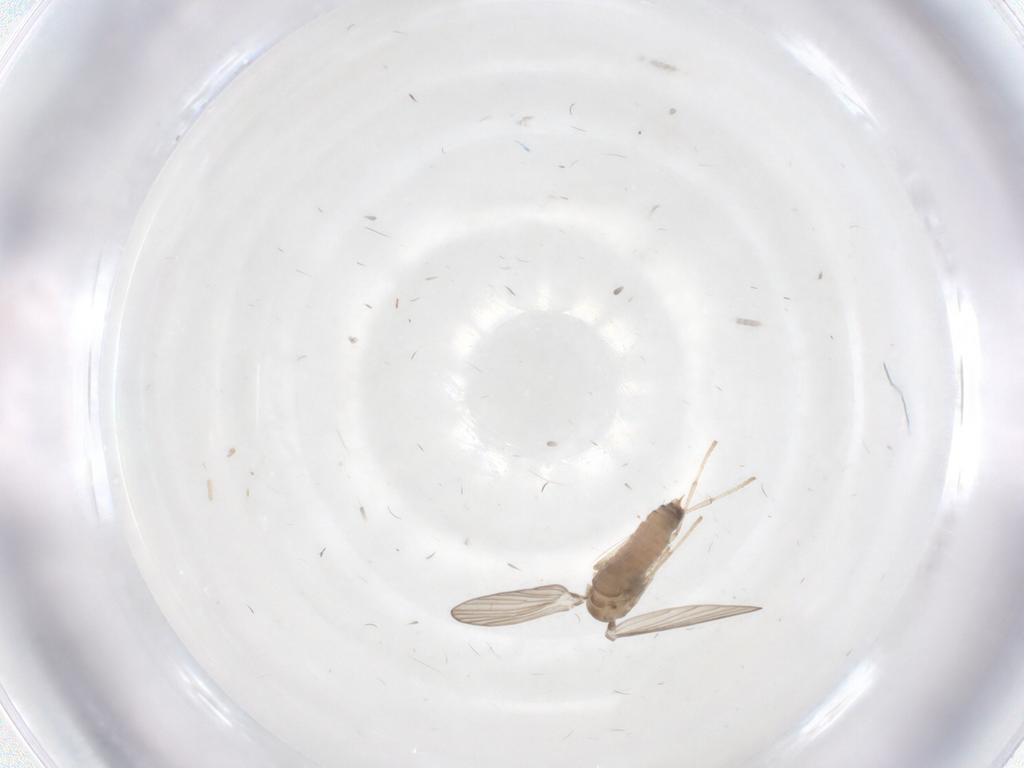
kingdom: Animalia
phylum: Arthropoda
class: Insecta
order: Diptera
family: Psychodidae
